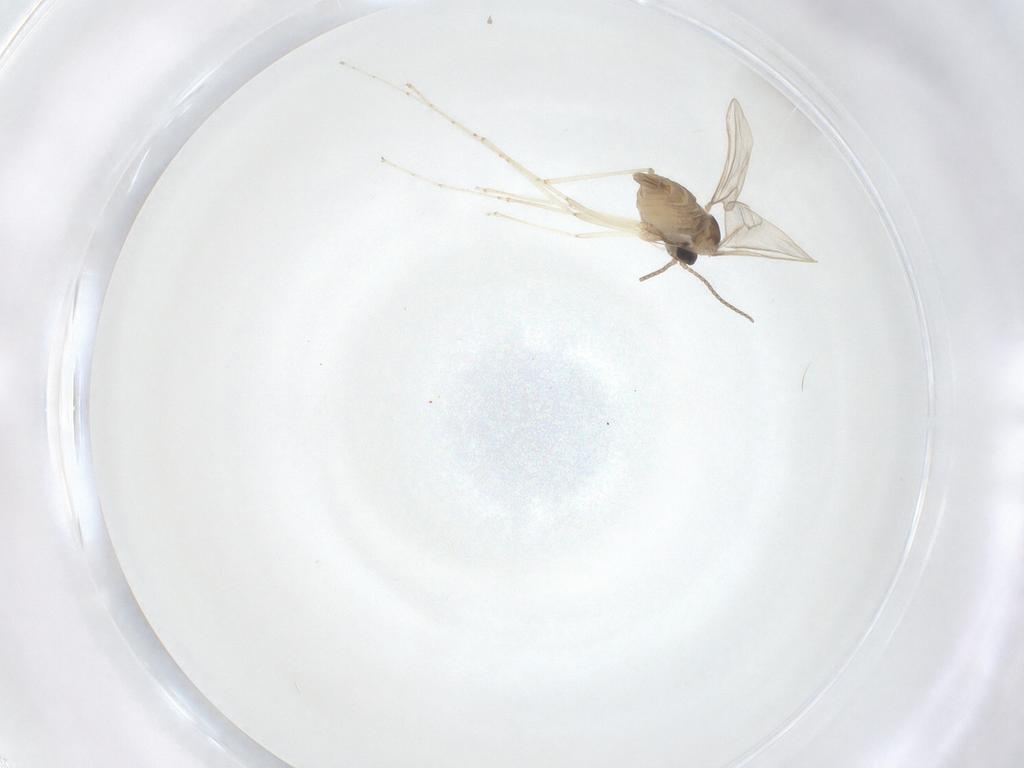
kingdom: Animalia
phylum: Arthropoda
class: Insecta
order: Diptera
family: Cecidomyiidae
